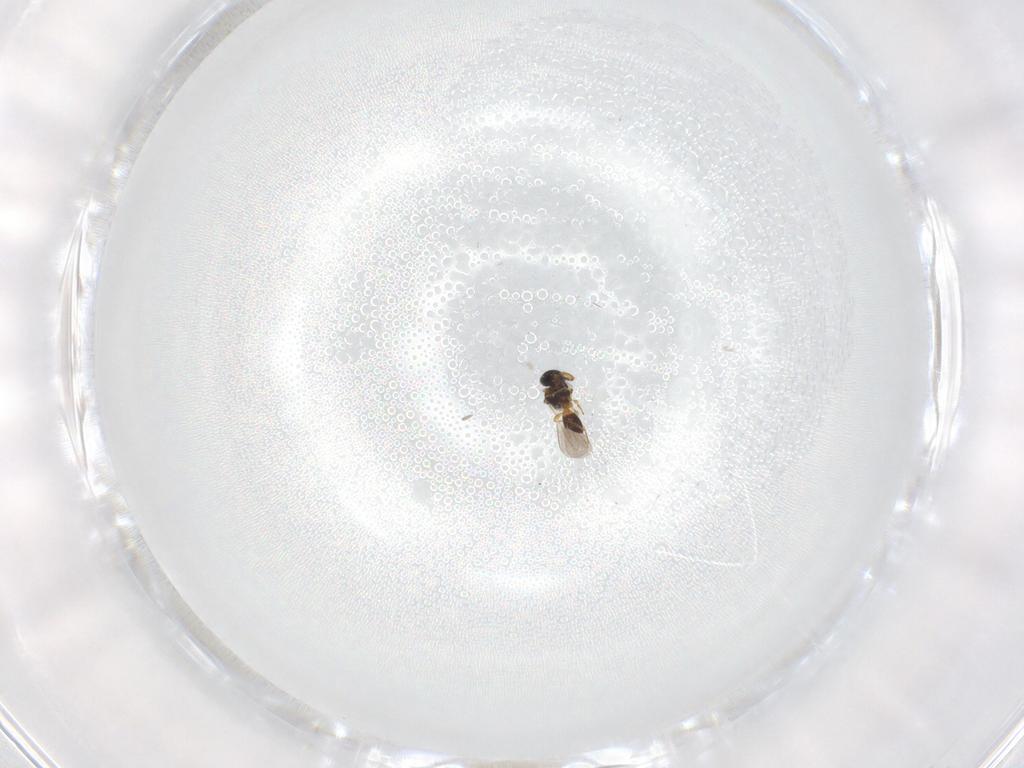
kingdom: Animalia
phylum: Arthropoda
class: Insecta
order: Hymenoptera
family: Platygastridae
